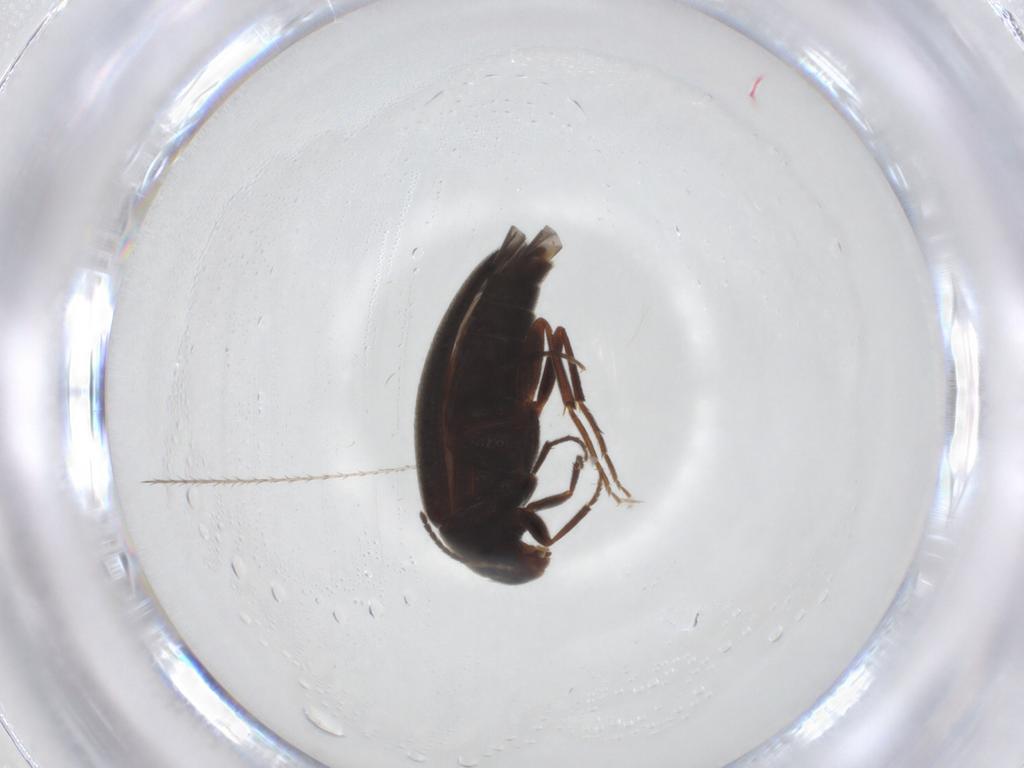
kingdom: Animalia
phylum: Arthropoda
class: Insecta
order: Coleoptera
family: Melandryidae
